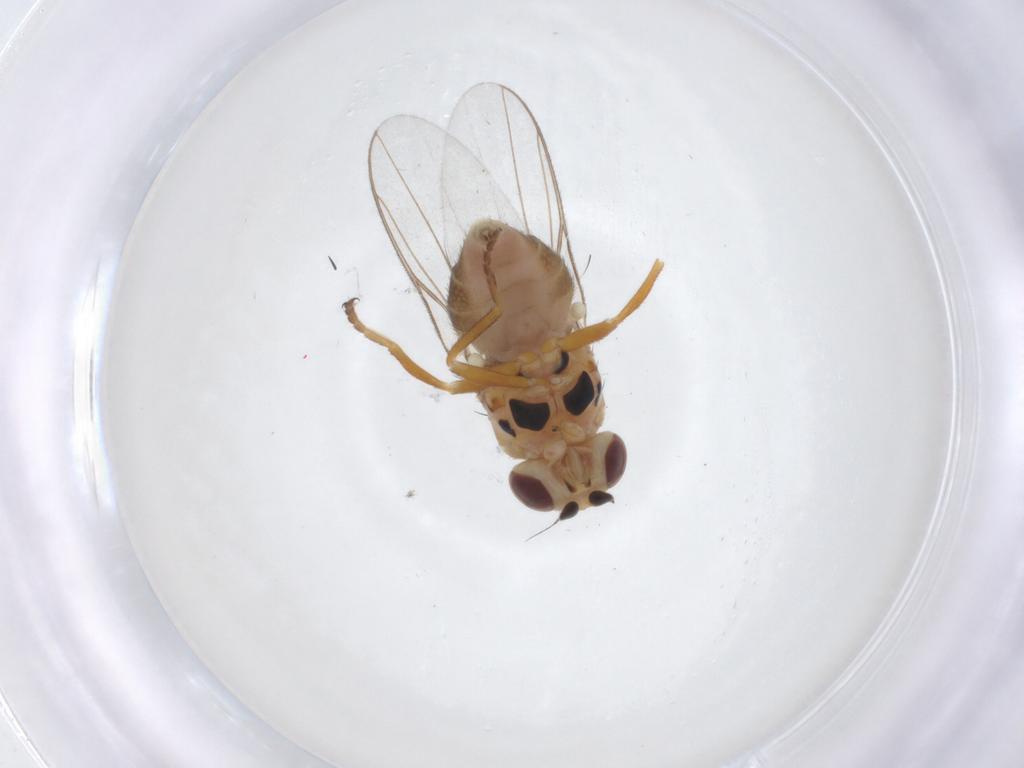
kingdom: Animalia
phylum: Arthropoda
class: Insecta
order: Diptera
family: Chloropidae
